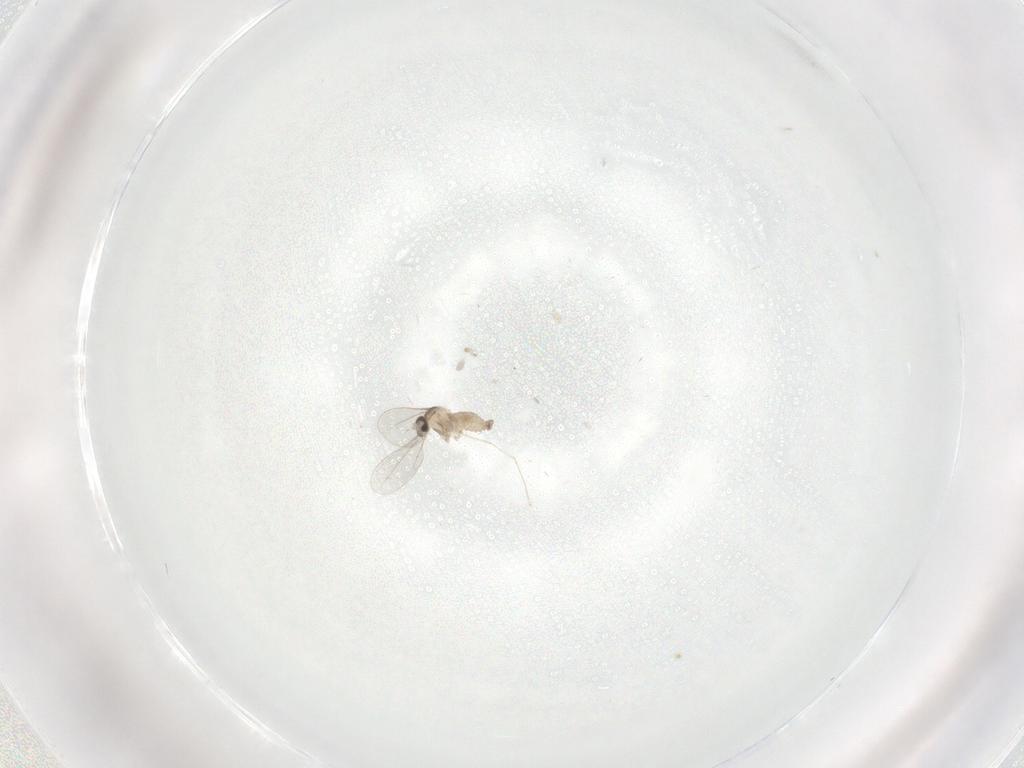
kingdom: Animalia
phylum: Arthropoda
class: Insecta
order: Diptera
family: Cecidomyiidae
